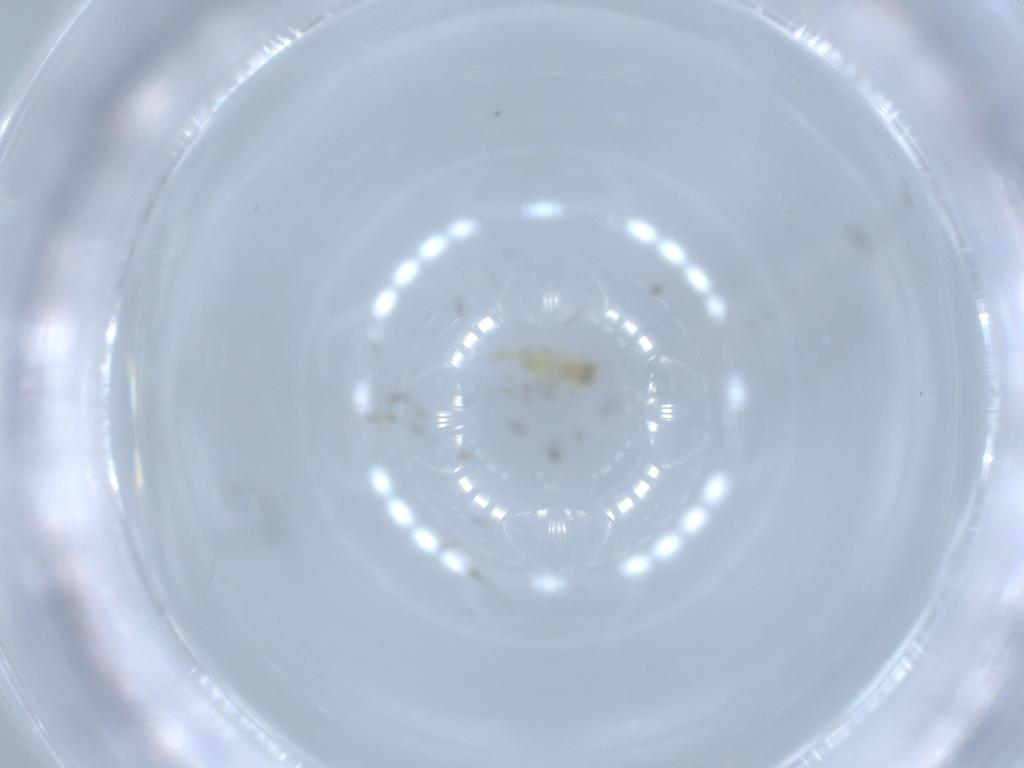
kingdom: Animalia
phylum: Arthropoda
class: Insecta
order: Hemiptera
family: Aleyrodidae
